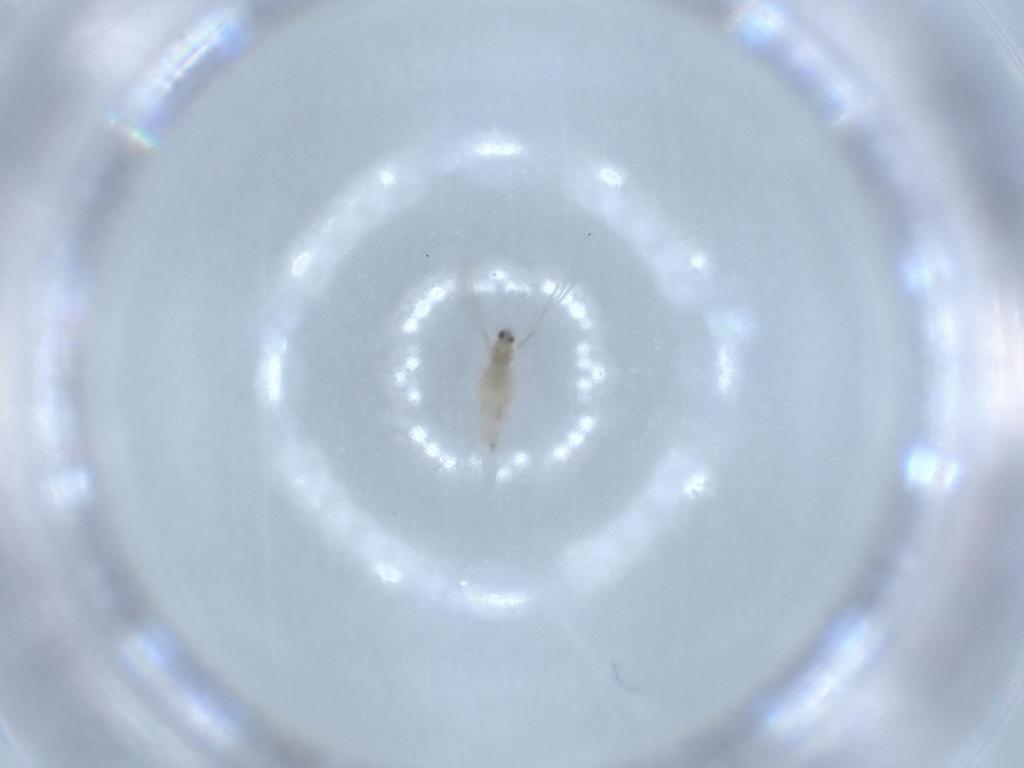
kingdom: Animalia
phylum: Arthropoda
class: Insecta
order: Diptera
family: Cecidomyiidae
